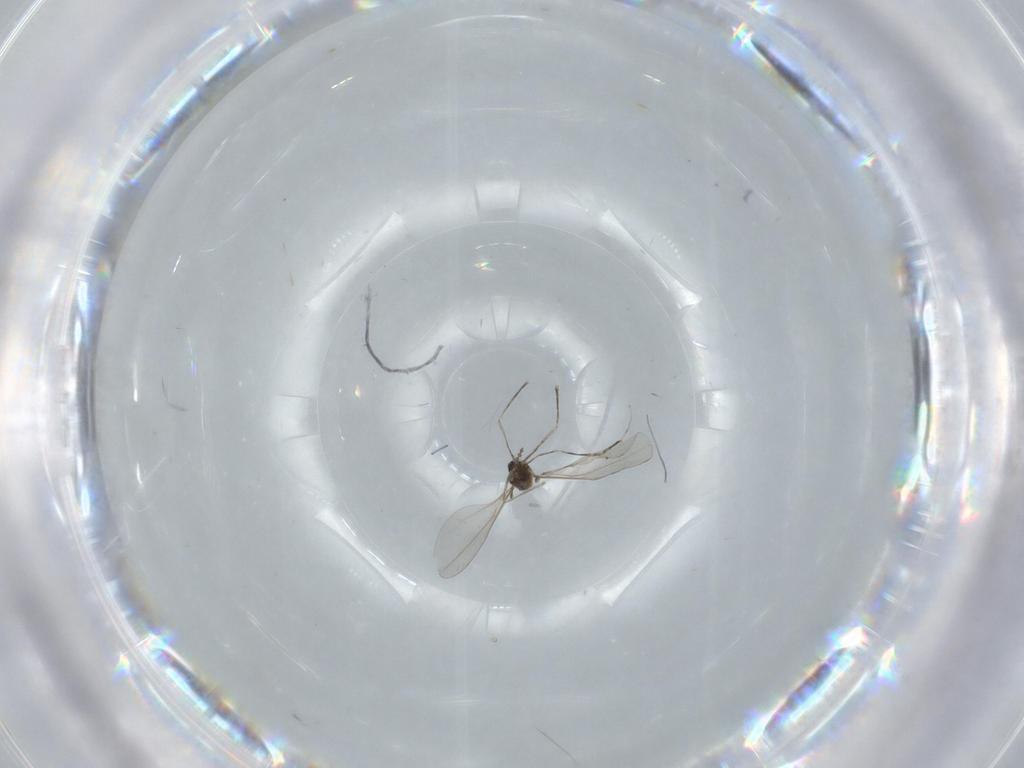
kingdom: Animalia
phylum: Arthropoda
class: Insecta
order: Diptera
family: Cecidomyiidae
